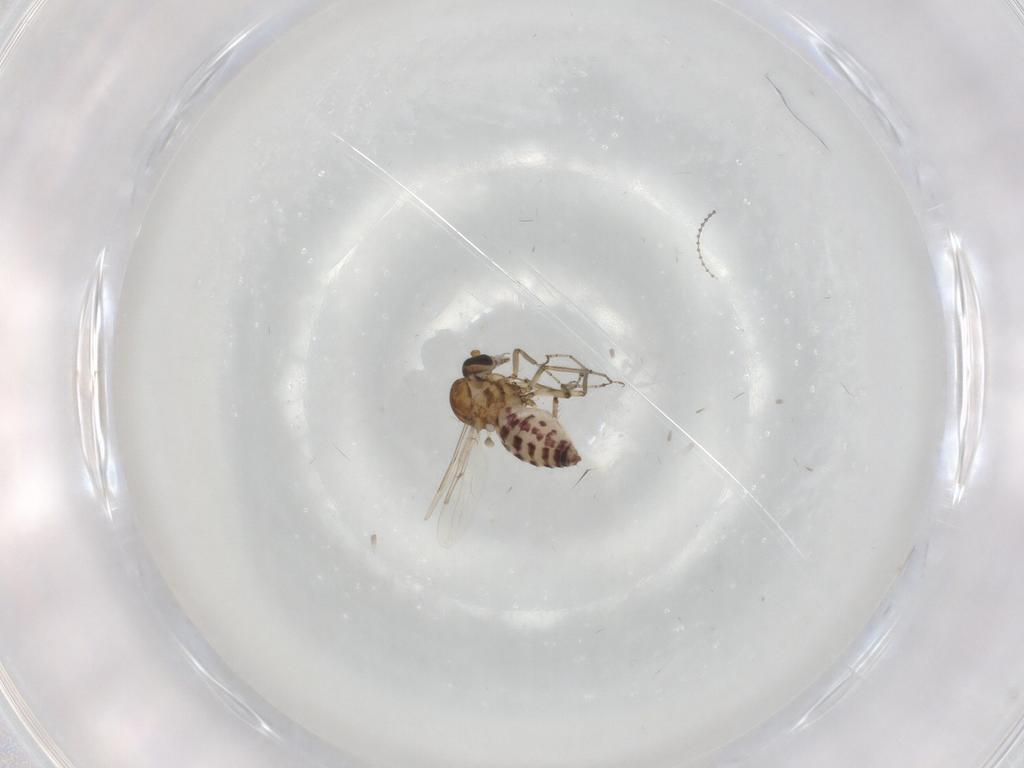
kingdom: Animalia
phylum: Arthropoda
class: Insecta
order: Diptera
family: Ceratopogonidae
